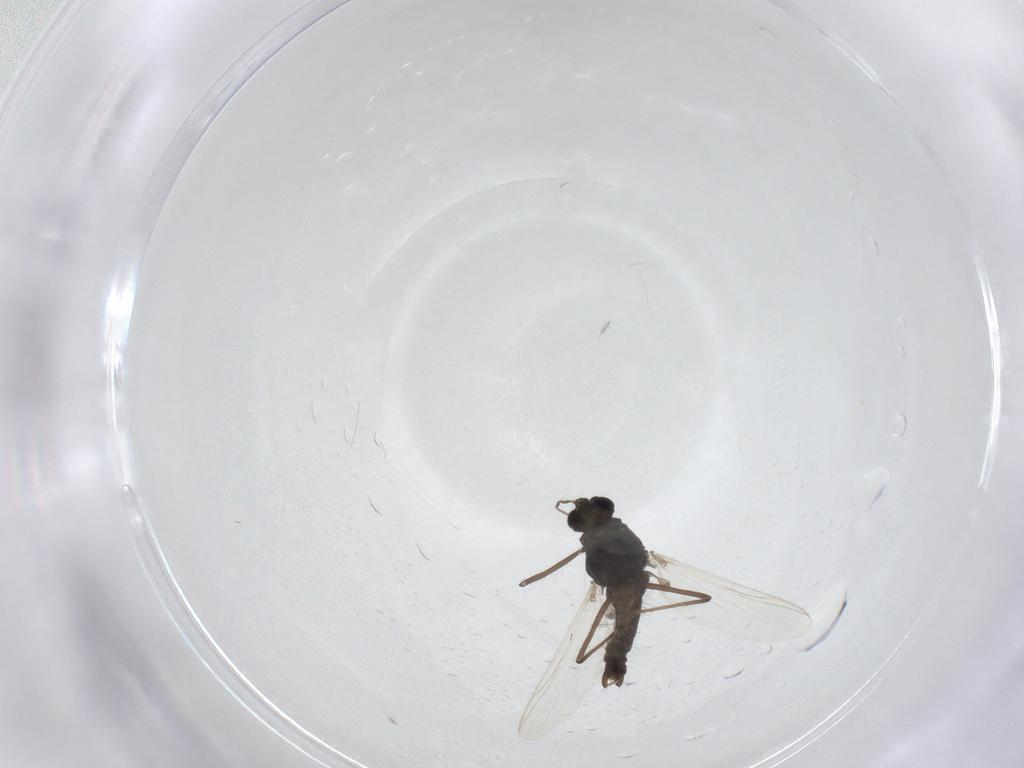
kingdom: Animalia
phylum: Arthropoda
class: Insecta
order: Diptera
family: Chironomidae
